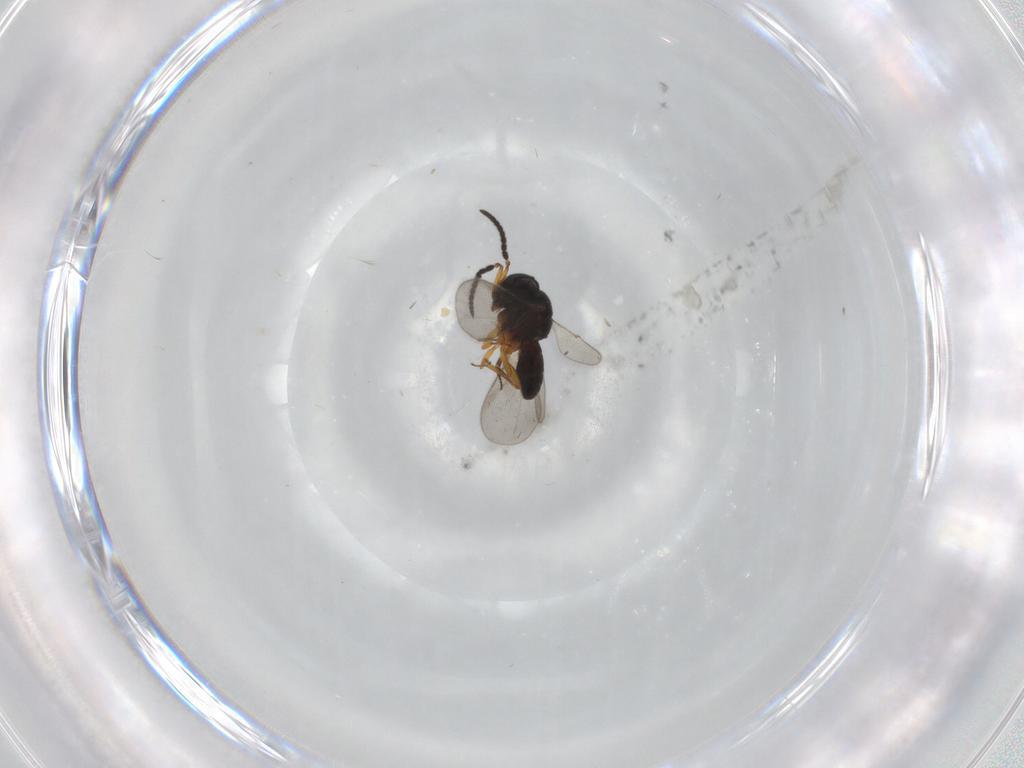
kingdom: Animalia
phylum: Arthropoda
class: Insecta
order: Hymenoptera
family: Scelionidae
